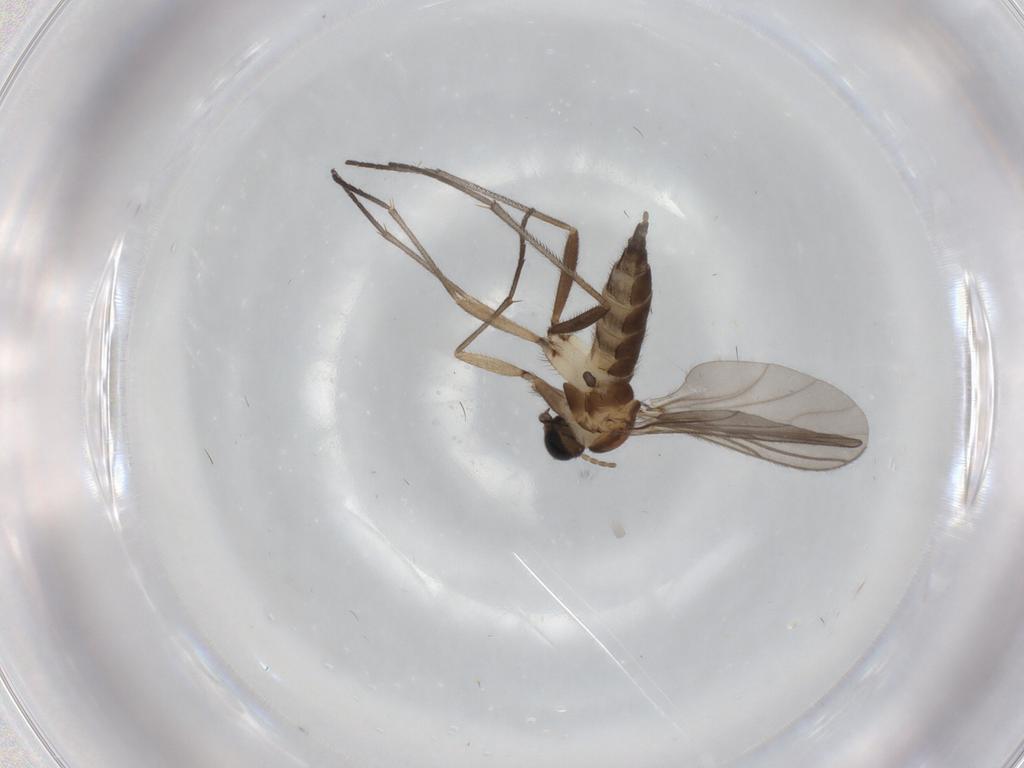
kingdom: Animalia
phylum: Arthropoda
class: Insecta
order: Diptera
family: Sciaridae
